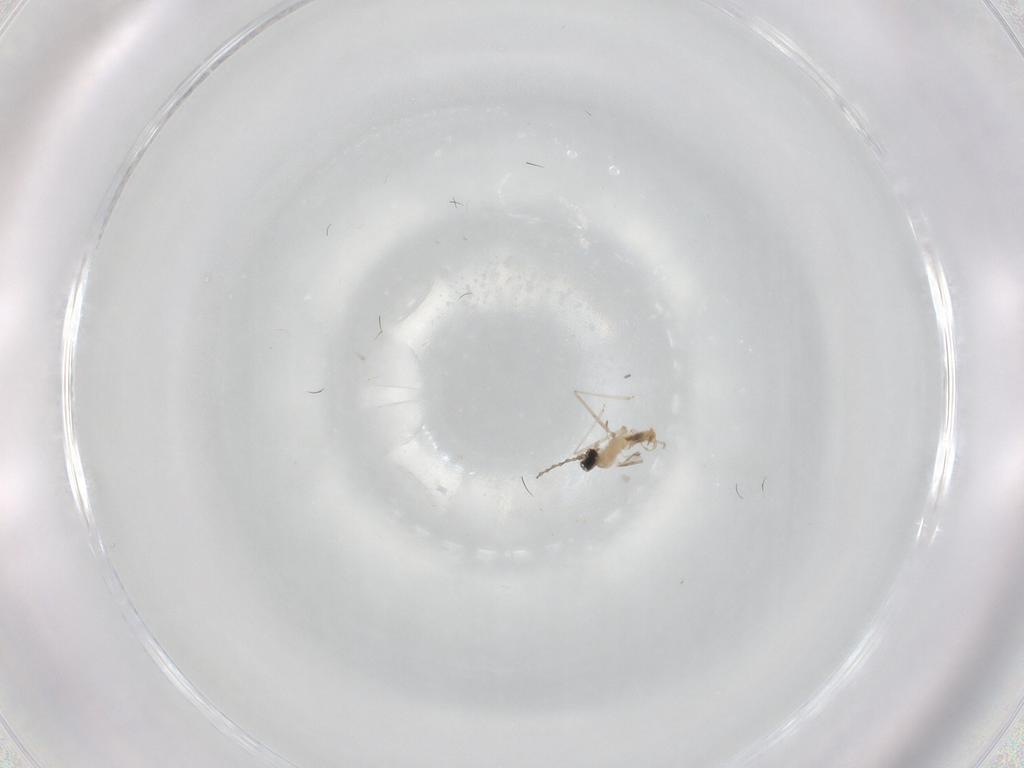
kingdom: Animalia
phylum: Arthropoda
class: Insecta
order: Diptera
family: Cecidomyiidae
